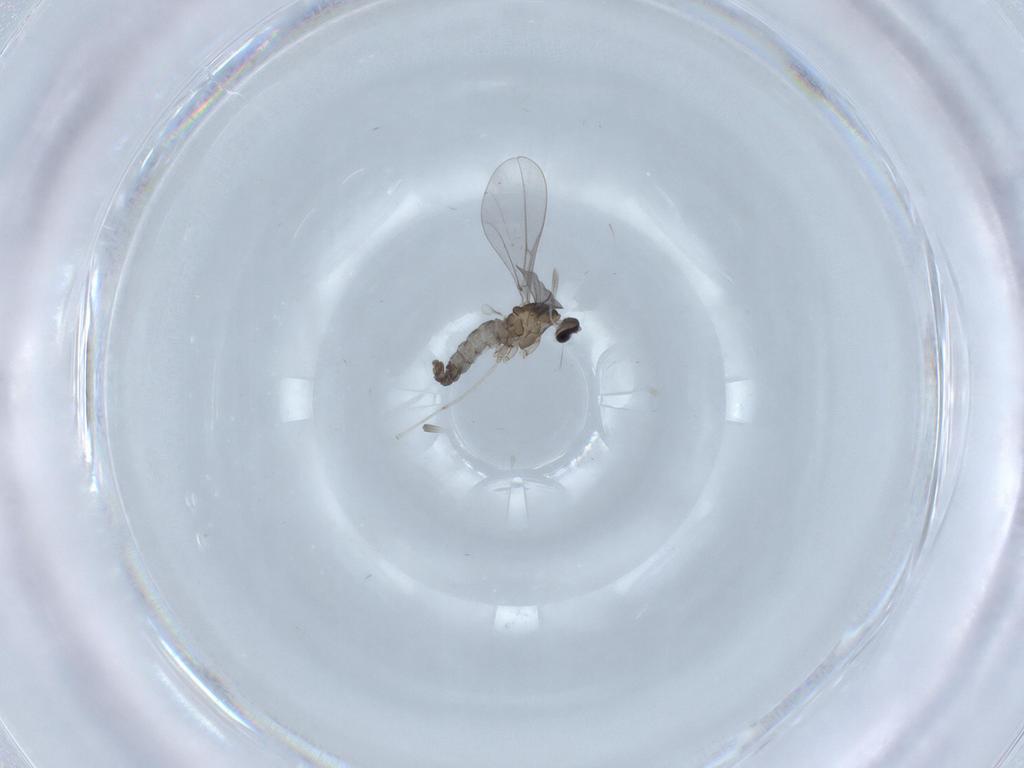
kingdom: Animalia
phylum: Arthropoda
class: Insecta
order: Diptera
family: Cecidomyiidae
